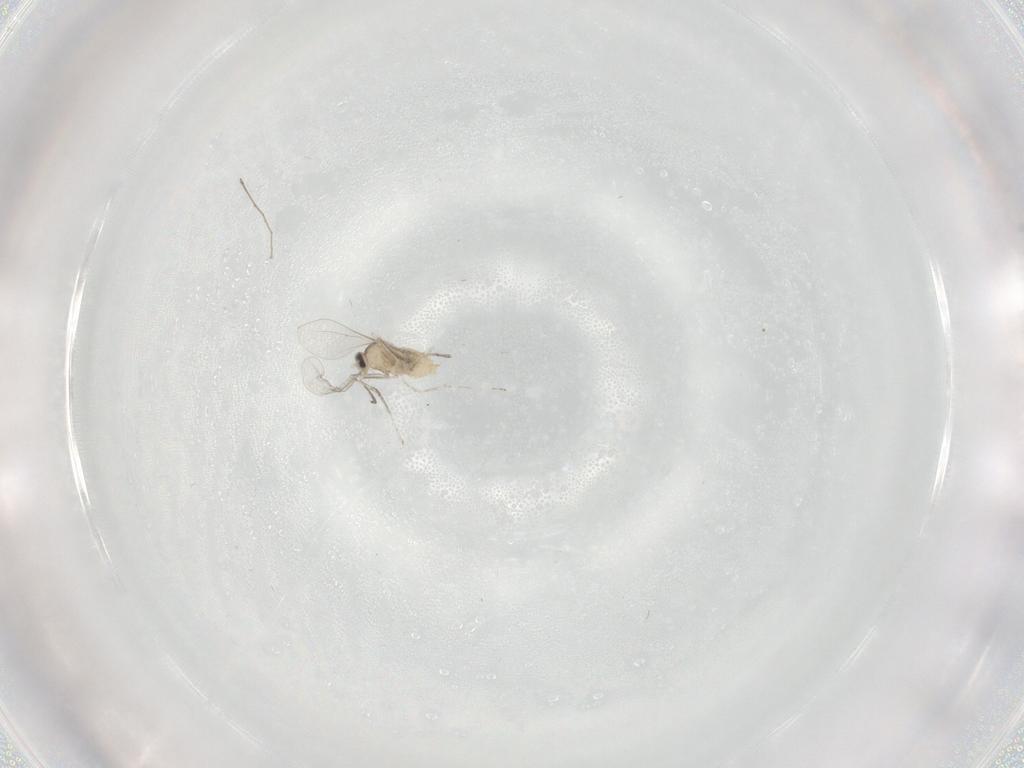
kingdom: Animalia
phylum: Arthropoda
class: Insecta
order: Diptera
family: Cecidomyiidae
